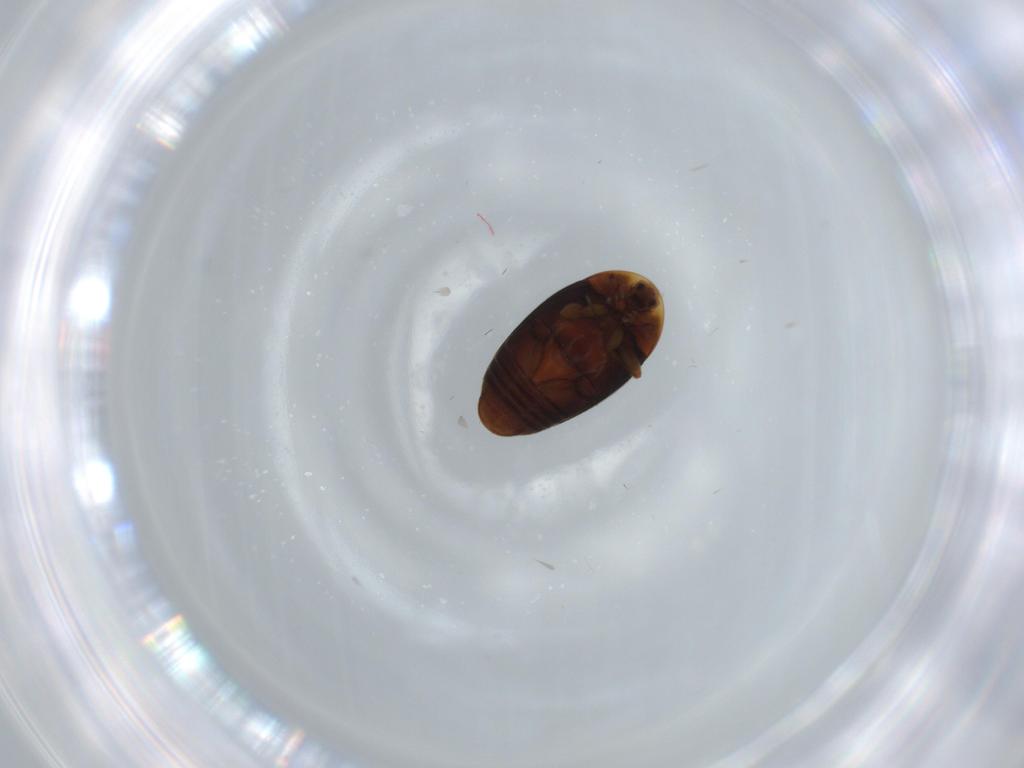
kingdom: Animalia
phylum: Arthropoda
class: Insecta
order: Coleoptera
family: Corylophidae
